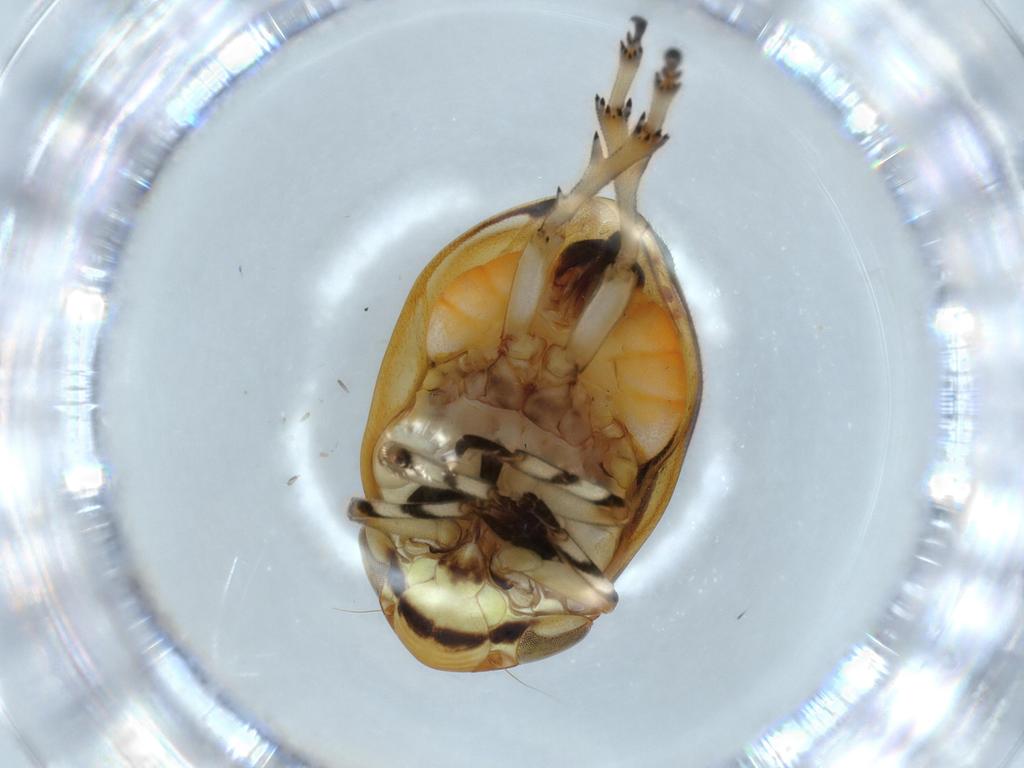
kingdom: Animalia
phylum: Arthropoda
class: Insecta
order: Hemiptera
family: Clastopteridae
